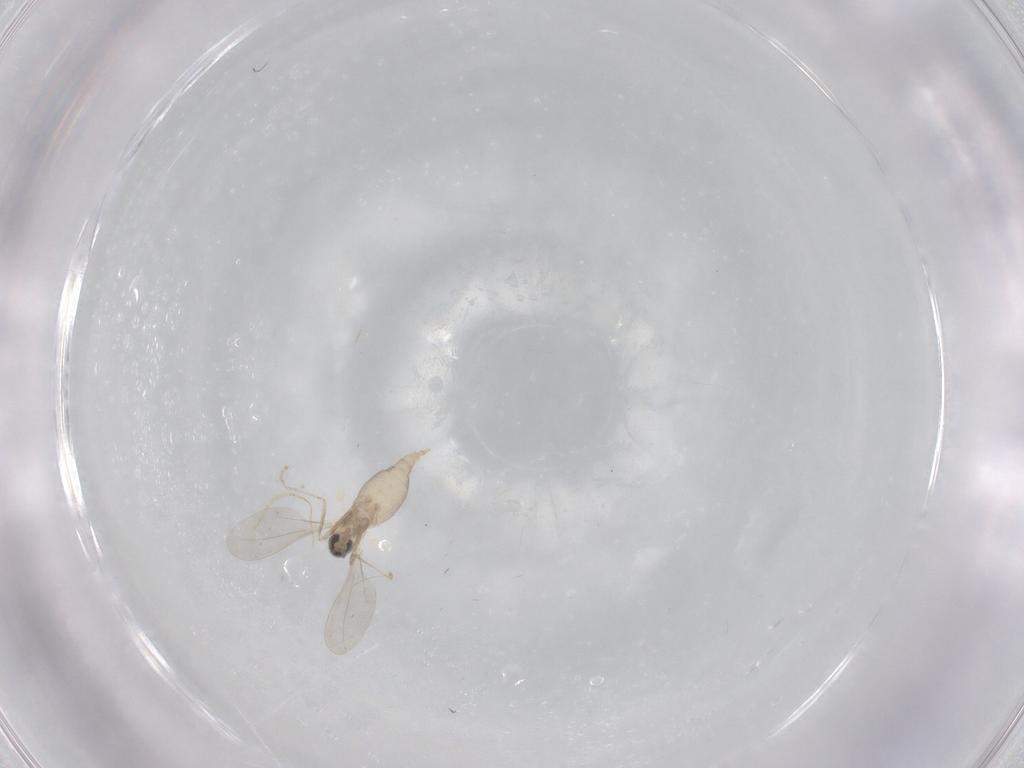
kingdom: Animalia
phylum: Arthropoda
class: Insecta
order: Diptera
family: Cecidomyiidae
